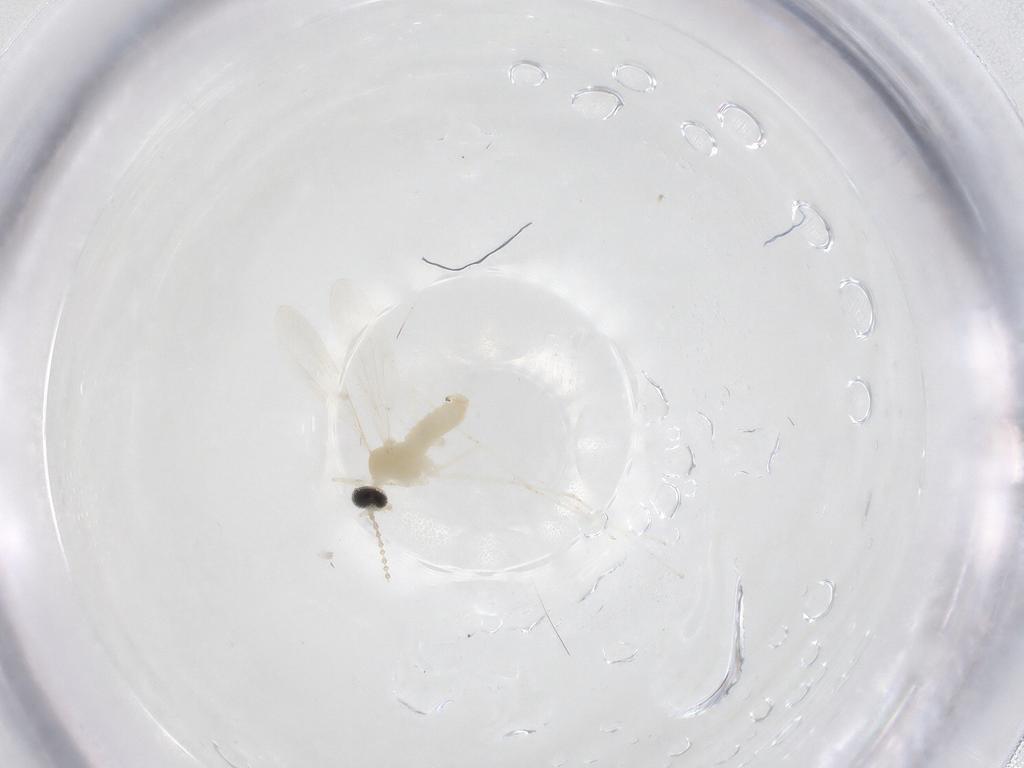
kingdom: Animalia
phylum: Arthropoda
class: Insecta
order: Diptera
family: Cecidomyiidae
